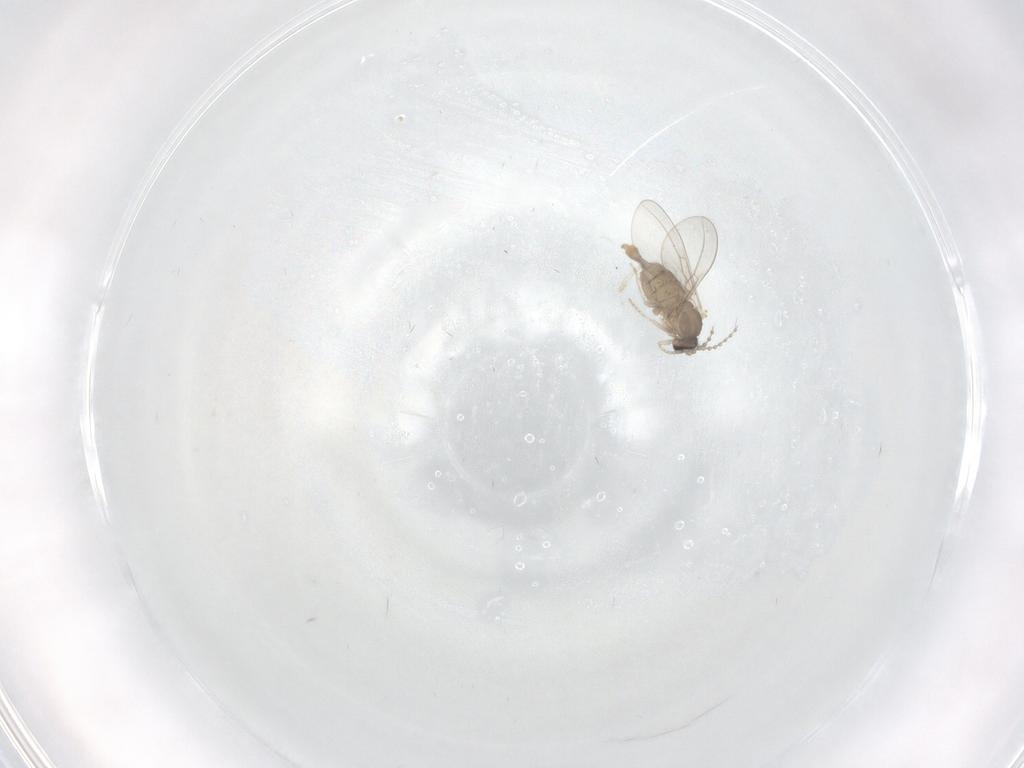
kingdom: Animalia
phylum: Arthropoda
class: Insecta
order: Diptera
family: Cecidomyiidae
